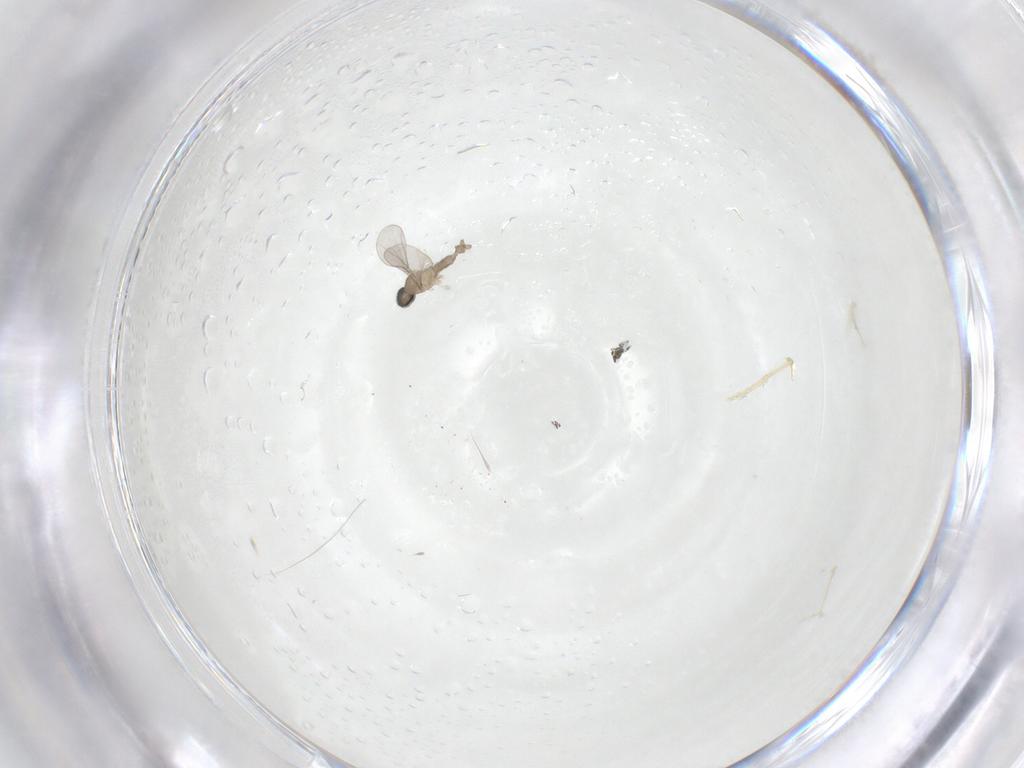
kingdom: Animalia
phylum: Arthropoda
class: Insecta
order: Diptera
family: Cecidomyiidae
